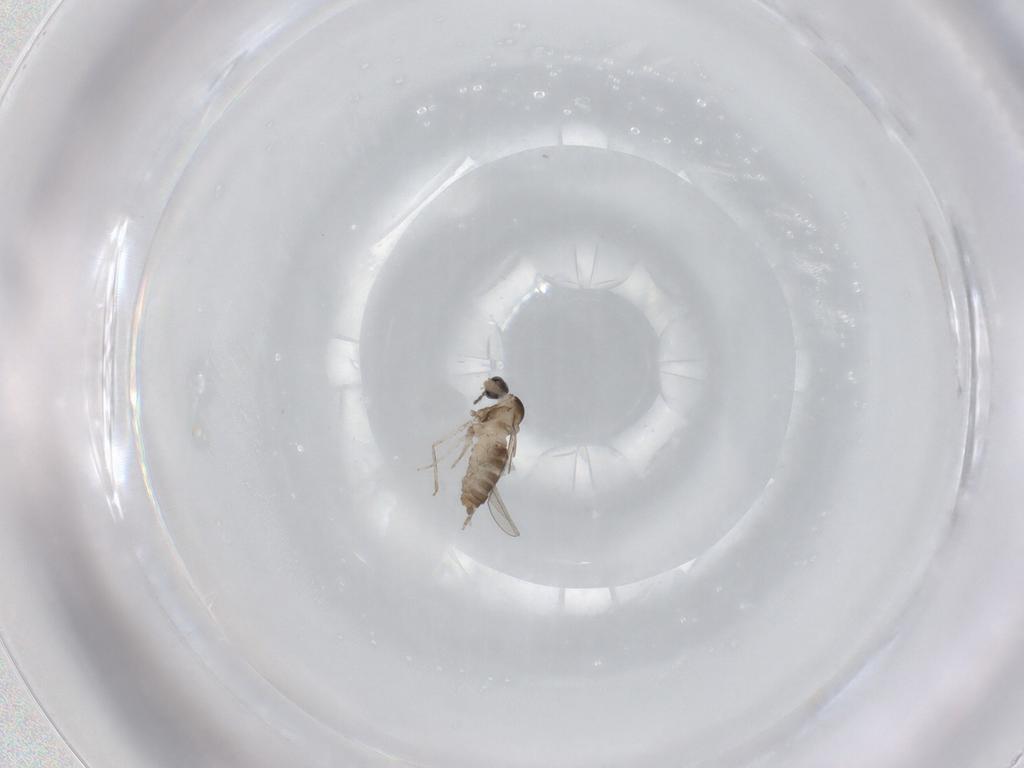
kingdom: Animalia
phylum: Arthropoda
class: Insecta
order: Diptera
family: Cecidomyiidae
